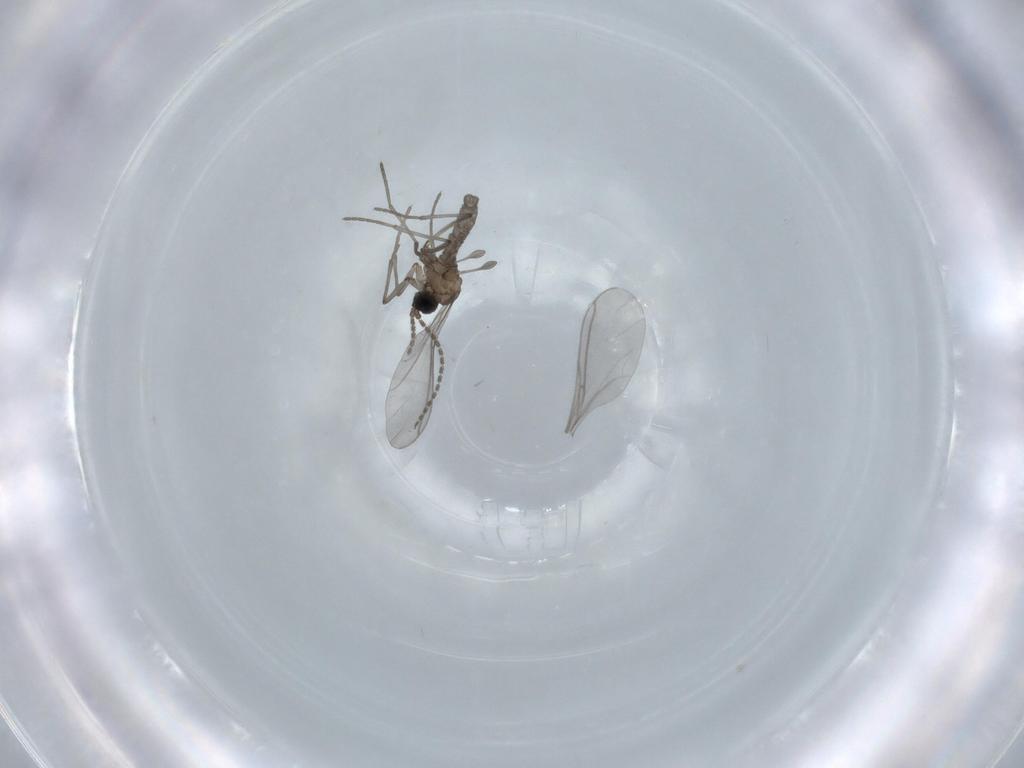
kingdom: Animalia
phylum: Arthropoda
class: Insecta
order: Diptera
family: Sciaridae
